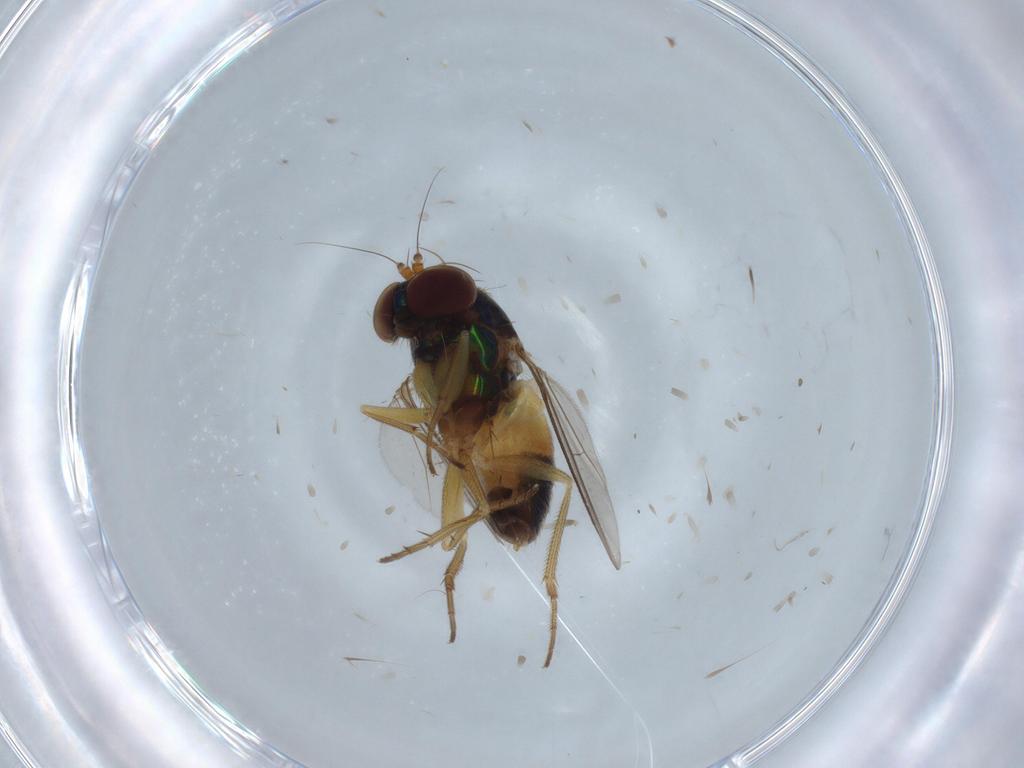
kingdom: Animalia
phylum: Arthropoda
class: Insecta
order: Diptera
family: Dolichopodidae
